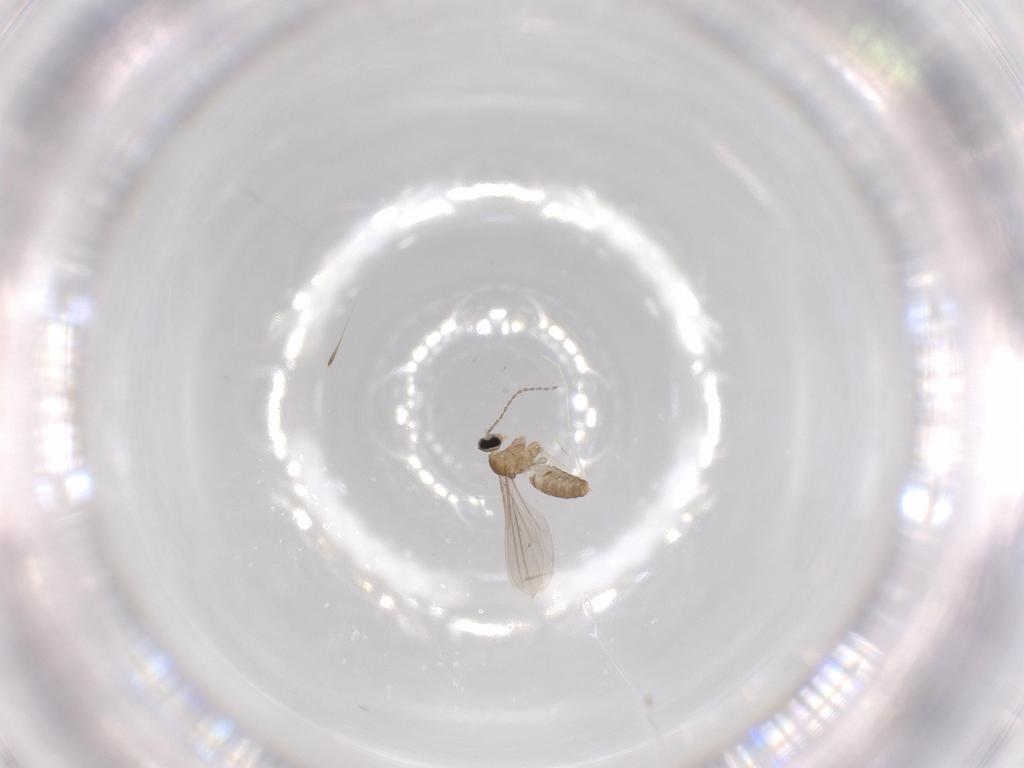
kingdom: Animalia
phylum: Arthropoda
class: Insecta
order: Diptera
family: Cecidomyiidae
